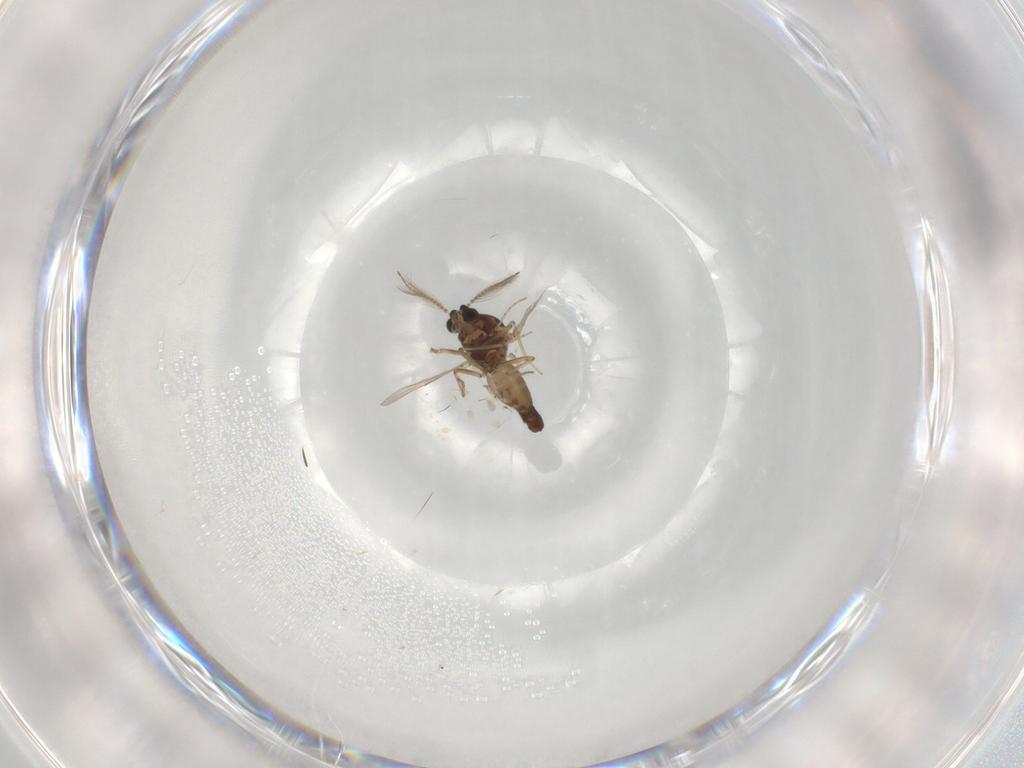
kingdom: Animalia
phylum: Arthropoda
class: Insecta
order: Diptera
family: Ceratopogonidae
